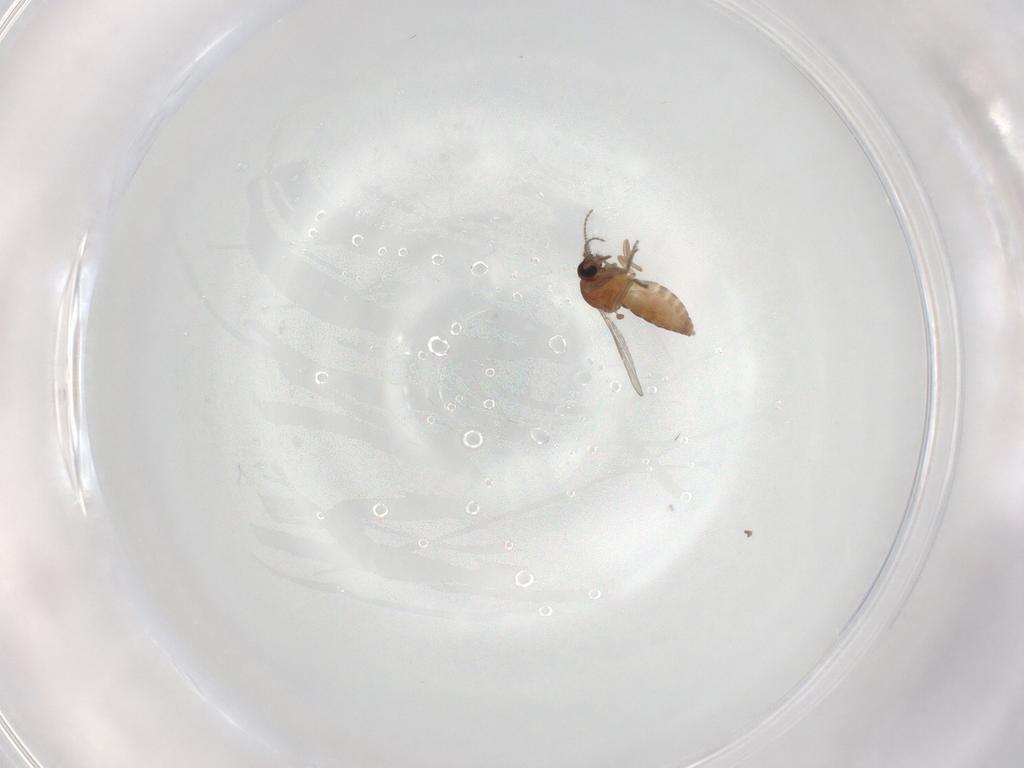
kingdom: Animalia
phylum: Arthropoda
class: Insecta
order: Diptera
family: Ceratopogonidae
